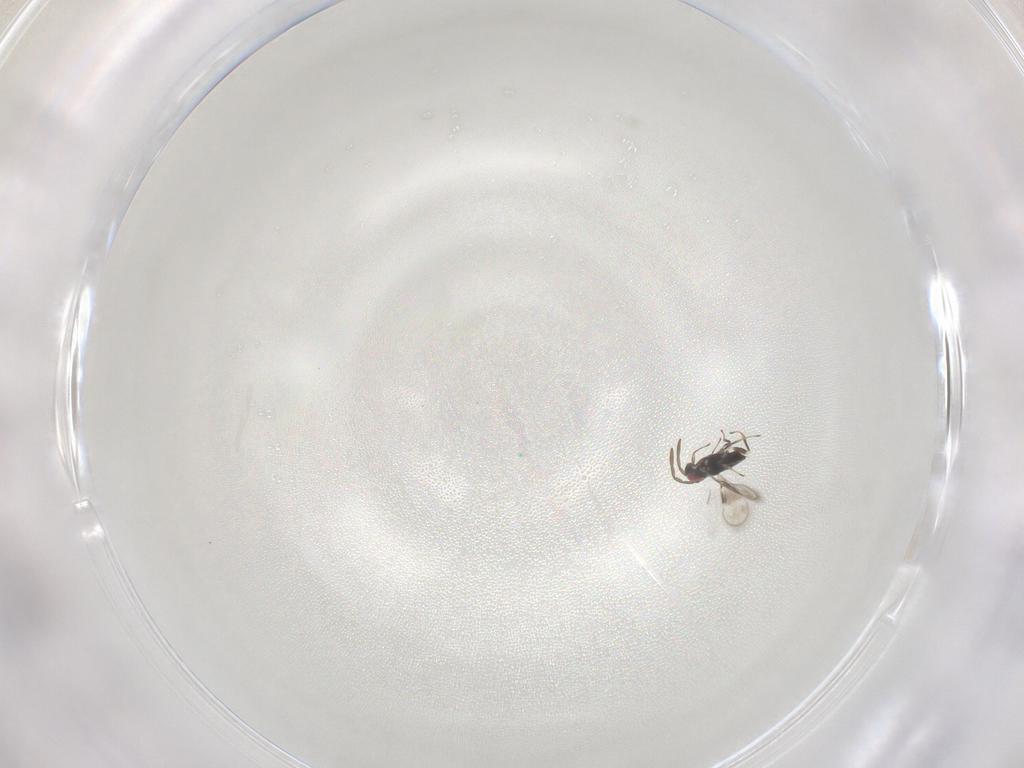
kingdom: Animalia
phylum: Arthropoda
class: Insecta
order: Hymenoptera
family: Azotidae
